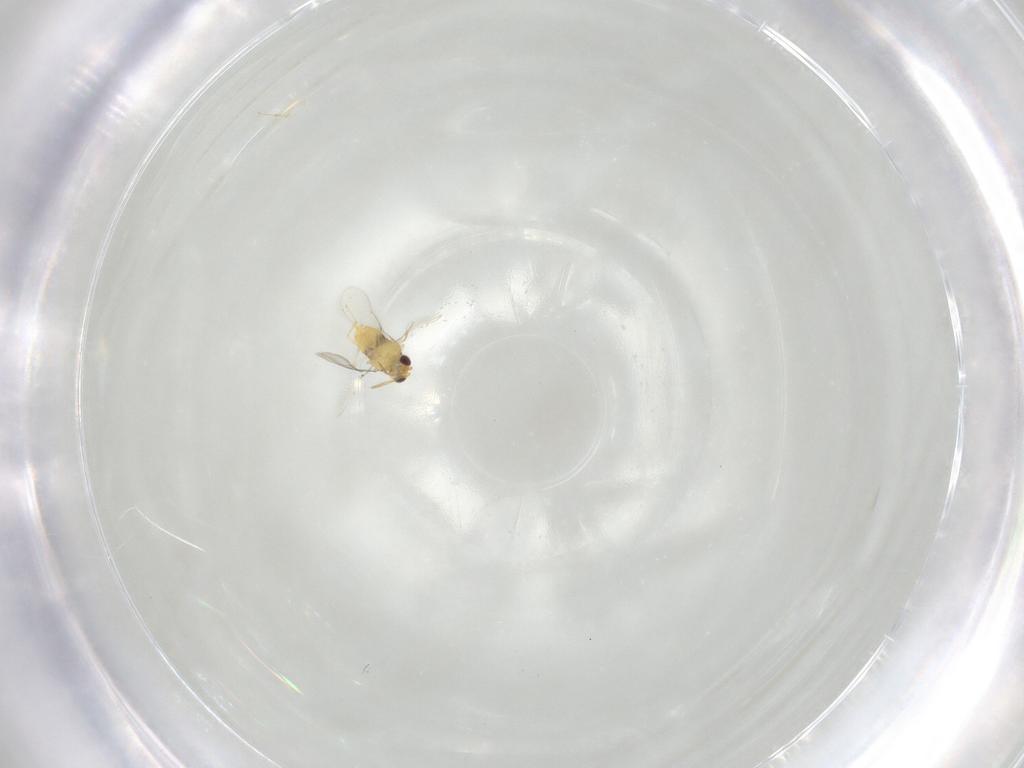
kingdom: Animalia
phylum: Arthropoda
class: Insecta
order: Hymenoptera
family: Aphelinidae
